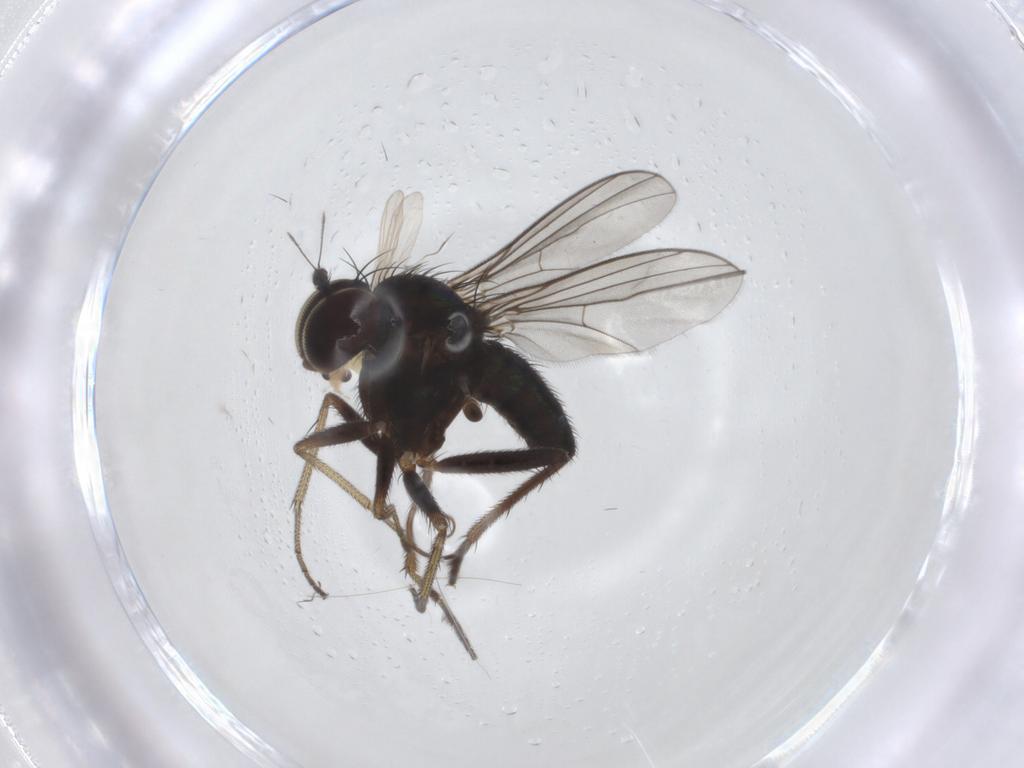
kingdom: Animalia
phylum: Arthropoda
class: Insecta
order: Diptera
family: Dolichopodidae
